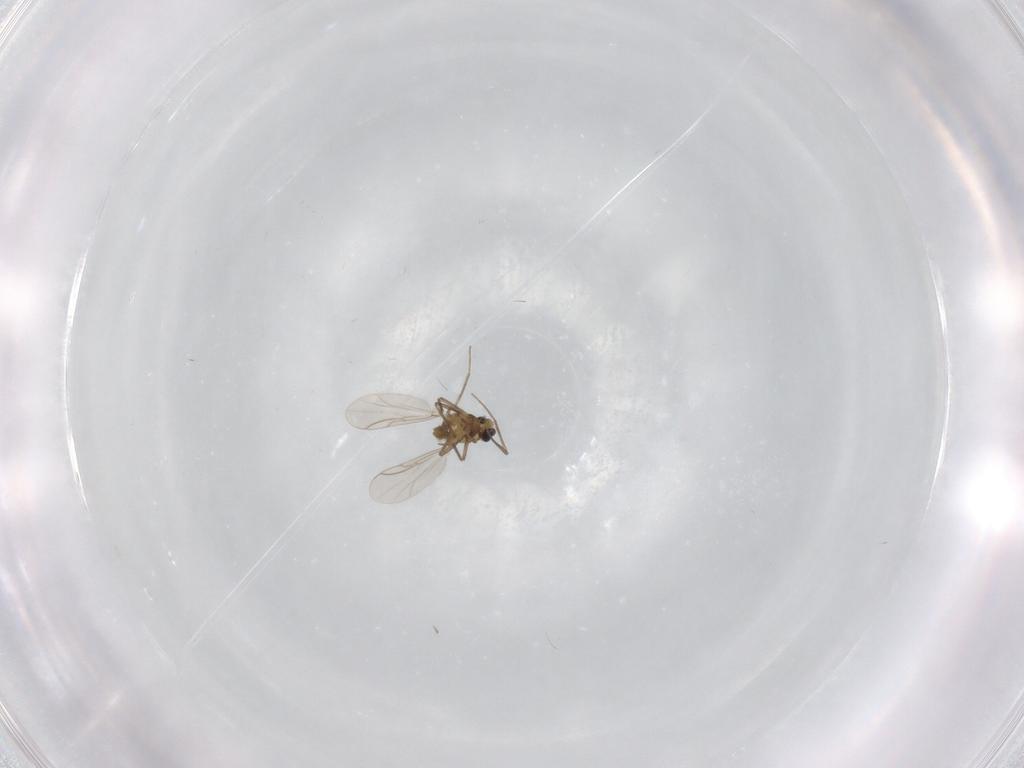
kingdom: Animalia
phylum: Arthropoda
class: Insecta
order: Diptera
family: Ceratopogonidae
